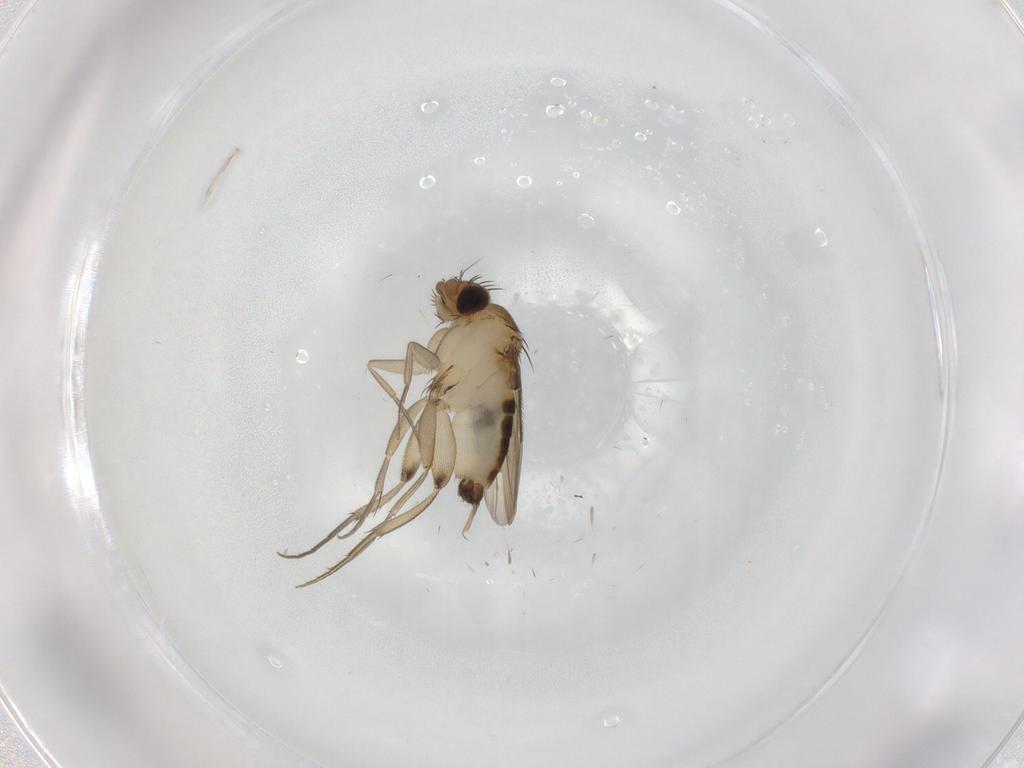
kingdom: Animalia
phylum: Arthropoda
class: Insecta
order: Diptera
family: Phoridae
